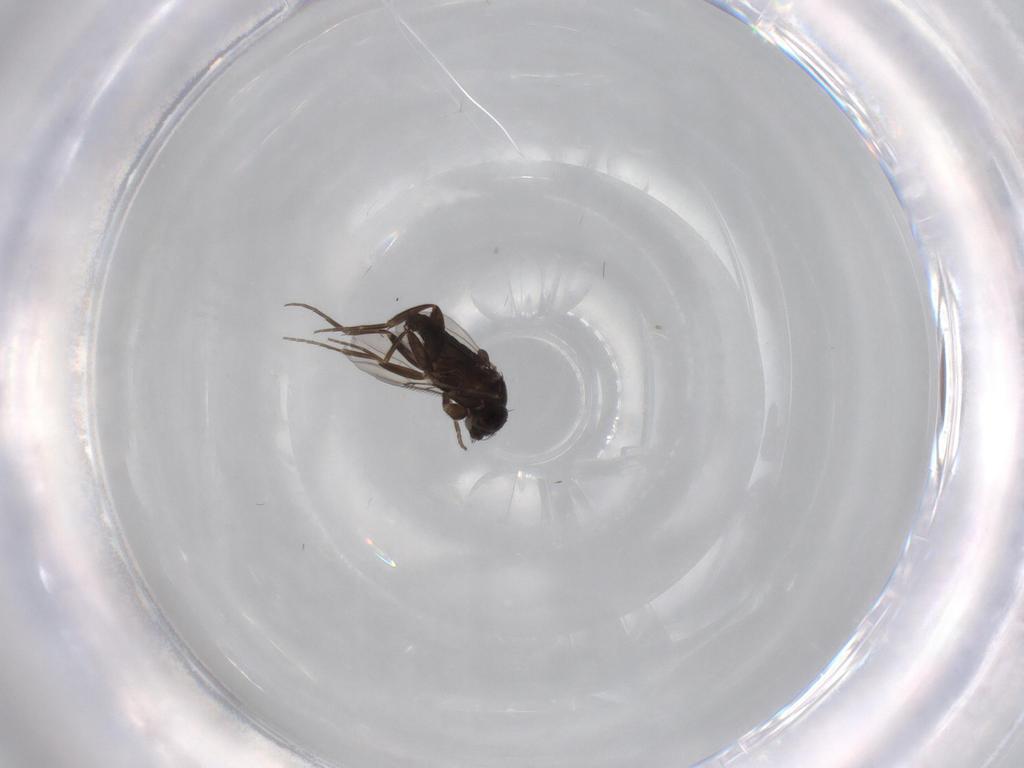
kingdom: Animalia
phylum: Arthropoda
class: Insecta
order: Diptera
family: Phoridae
